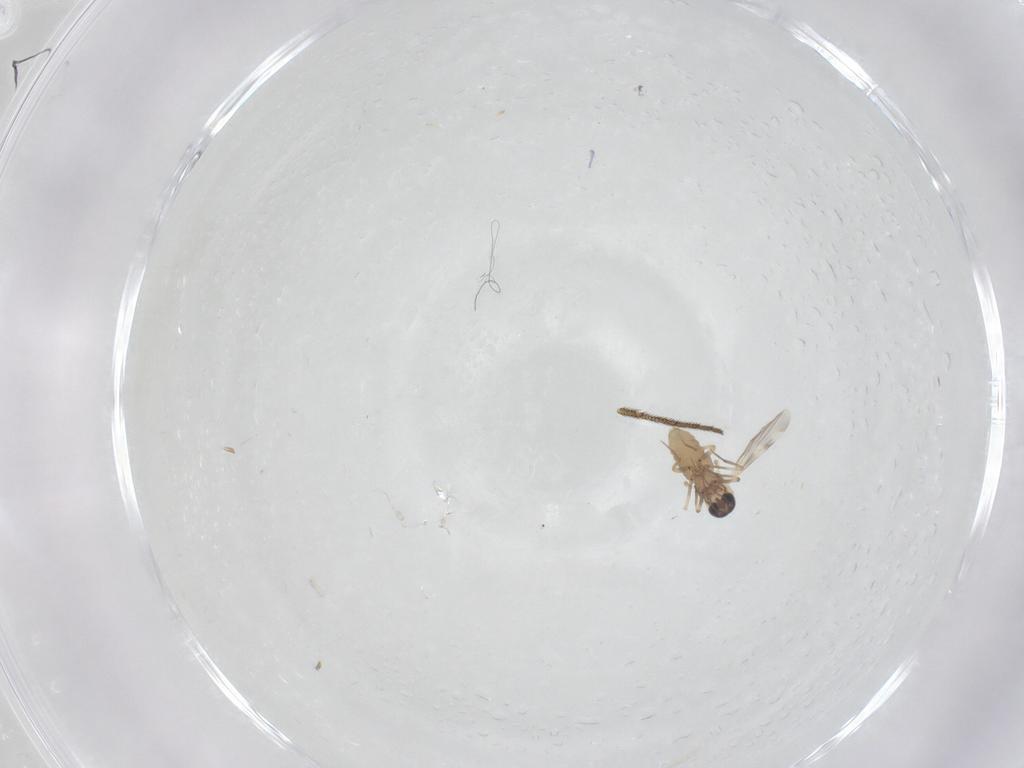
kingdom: Animalia
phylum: Arthropoda
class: Insecta
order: Diptera
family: Ceratopogonidae
